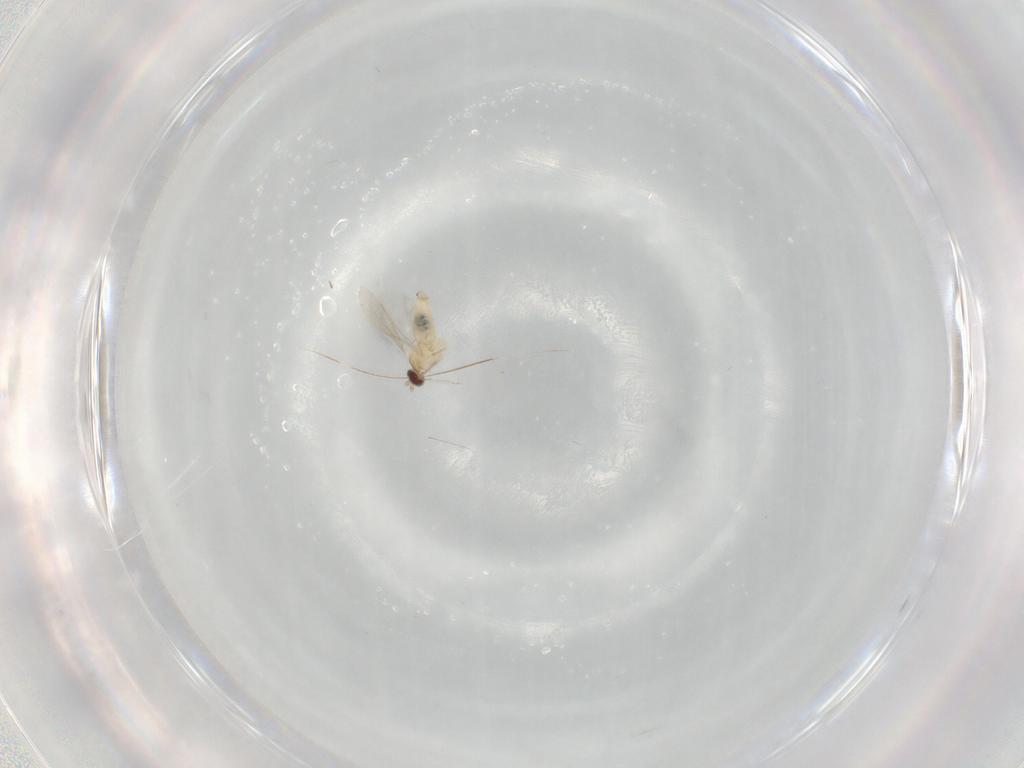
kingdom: Animalia
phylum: Arthropoda
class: Insecta
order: Diptera
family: Cecidomyiidae
